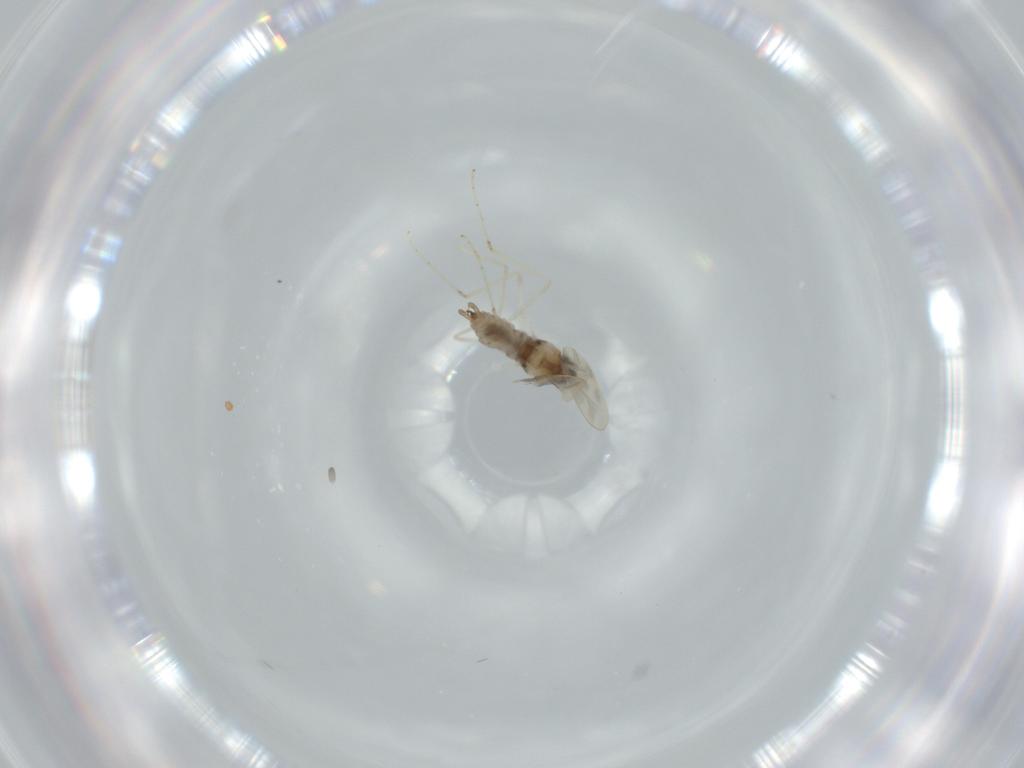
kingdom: Animalia
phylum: Arthropoda
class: Insecta
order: Diptera
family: Cecidomyiidae
